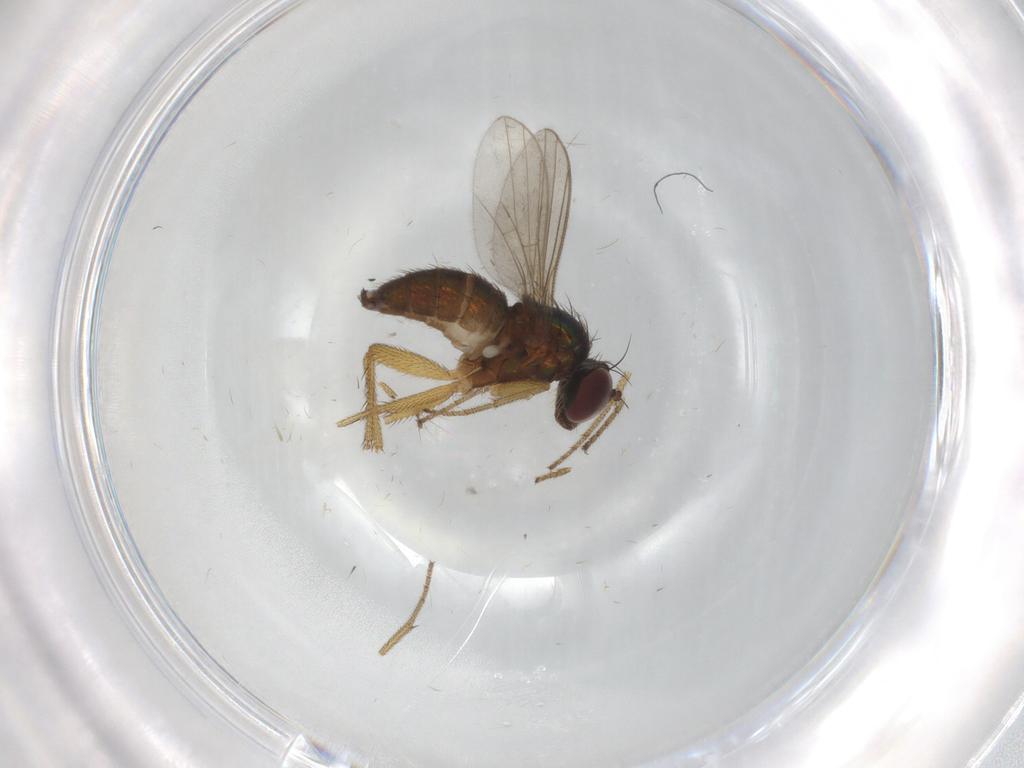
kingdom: Animalia
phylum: Arthropoda
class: Insecta
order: Diptera
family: Dolichopodidae
